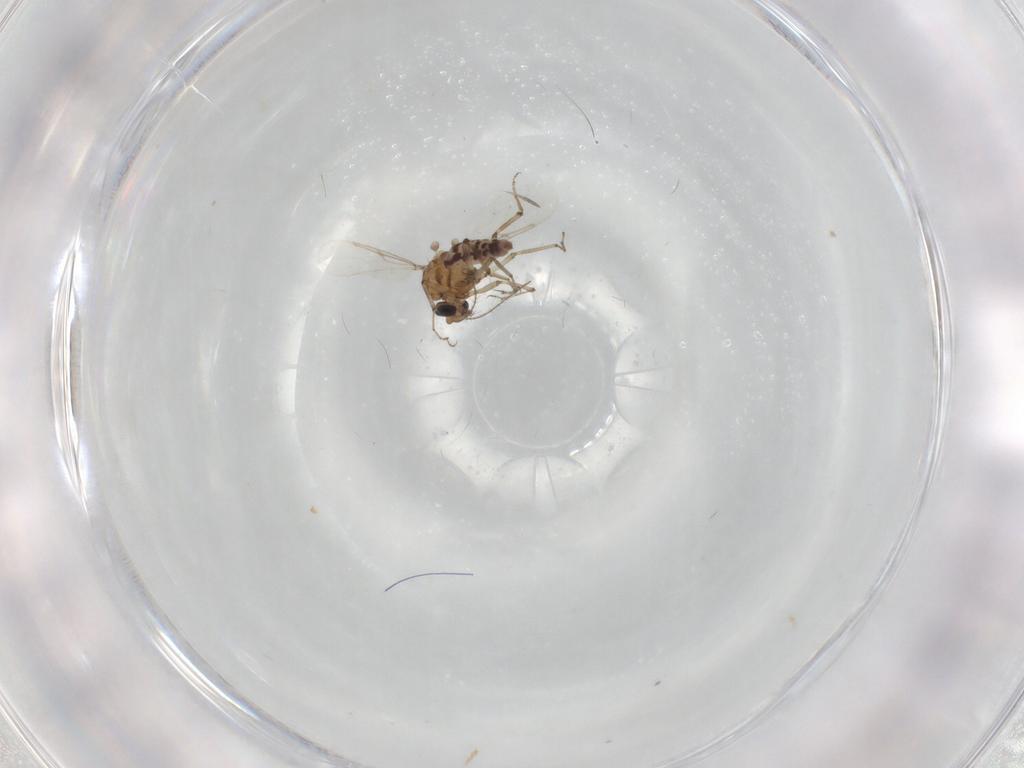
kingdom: Animalia
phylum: Arthropoda
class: Insecta
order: Diptera
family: Ceratopogonidae
